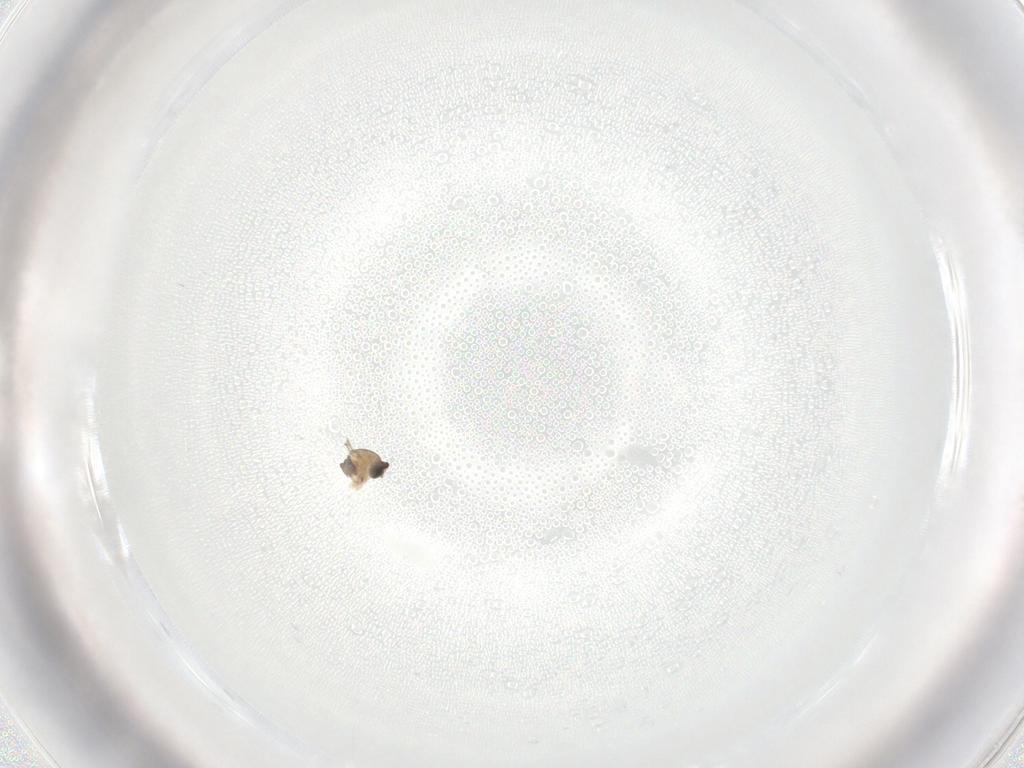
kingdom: Animalia
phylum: Arthropoda
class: Insecta
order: Diptera
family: Cecidomyiidae
